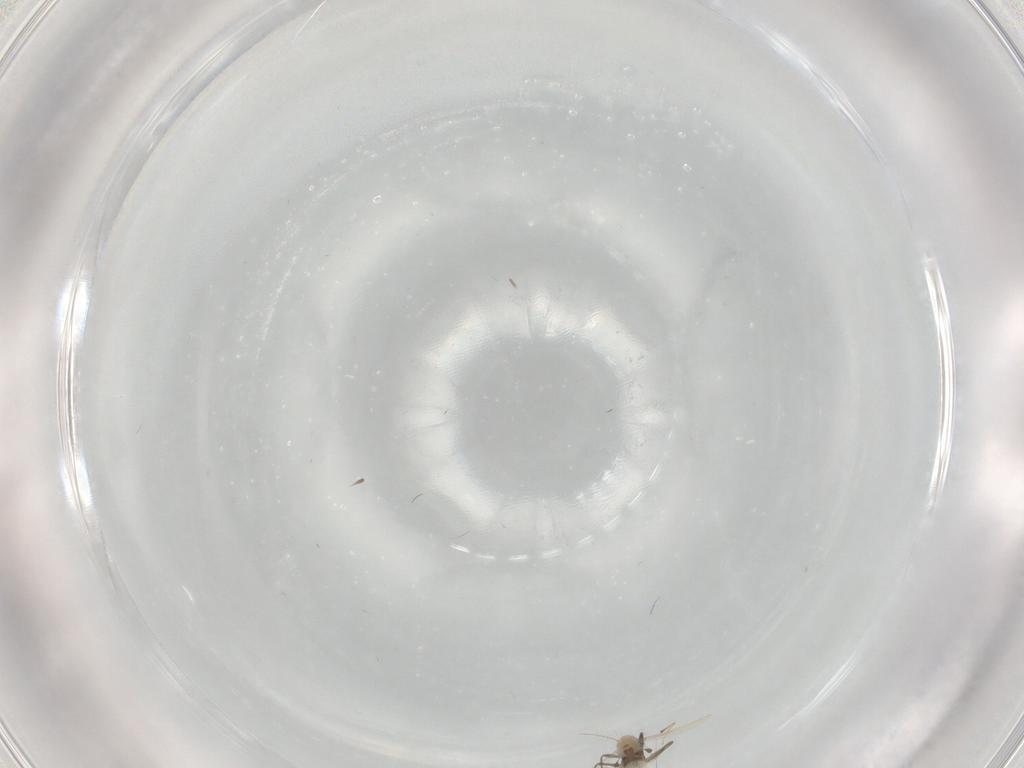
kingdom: Animalia
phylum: Arthropoda
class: Insecta
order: Diptera
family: Chironomidae
